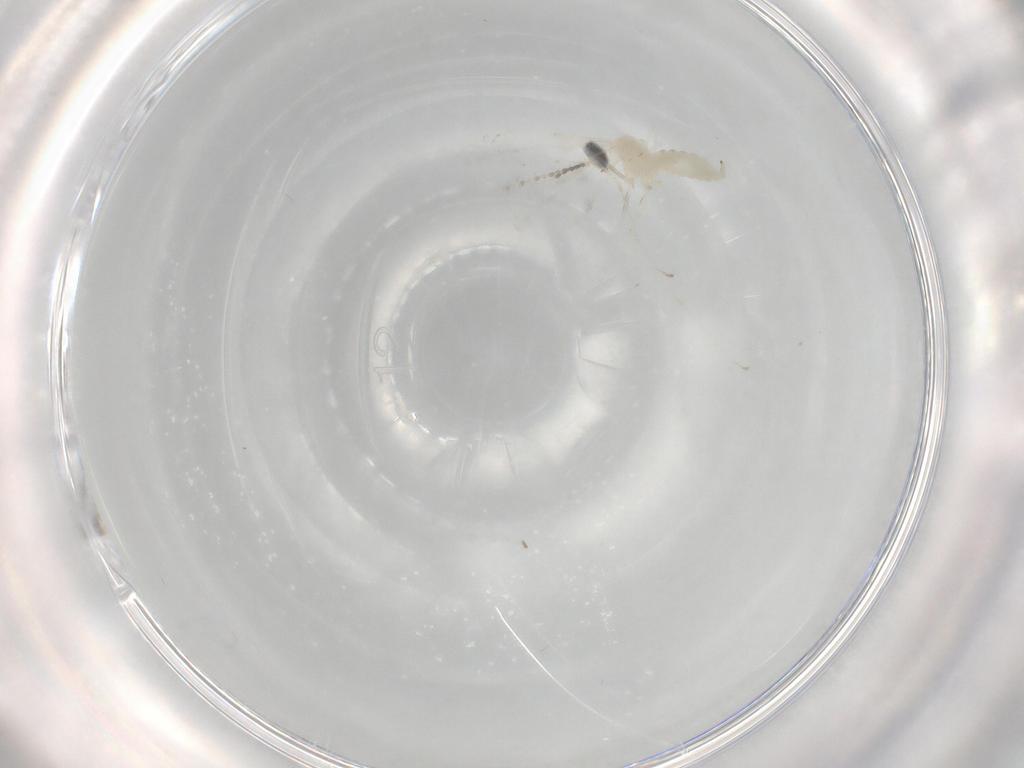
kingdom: Animalia
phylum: Arthropoda
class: Insecta
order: Diptera
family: Cecidomyiidae
